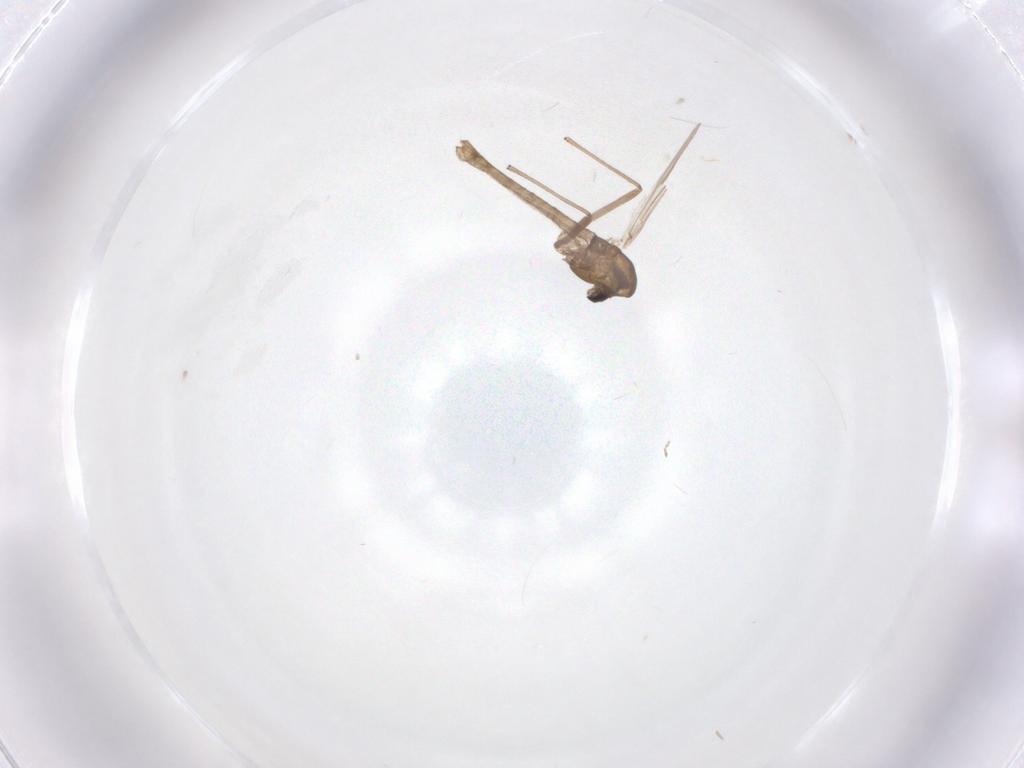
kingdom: Animalia
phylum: Arthropoda
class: Insecta
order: Diptera
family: Chironomidae
